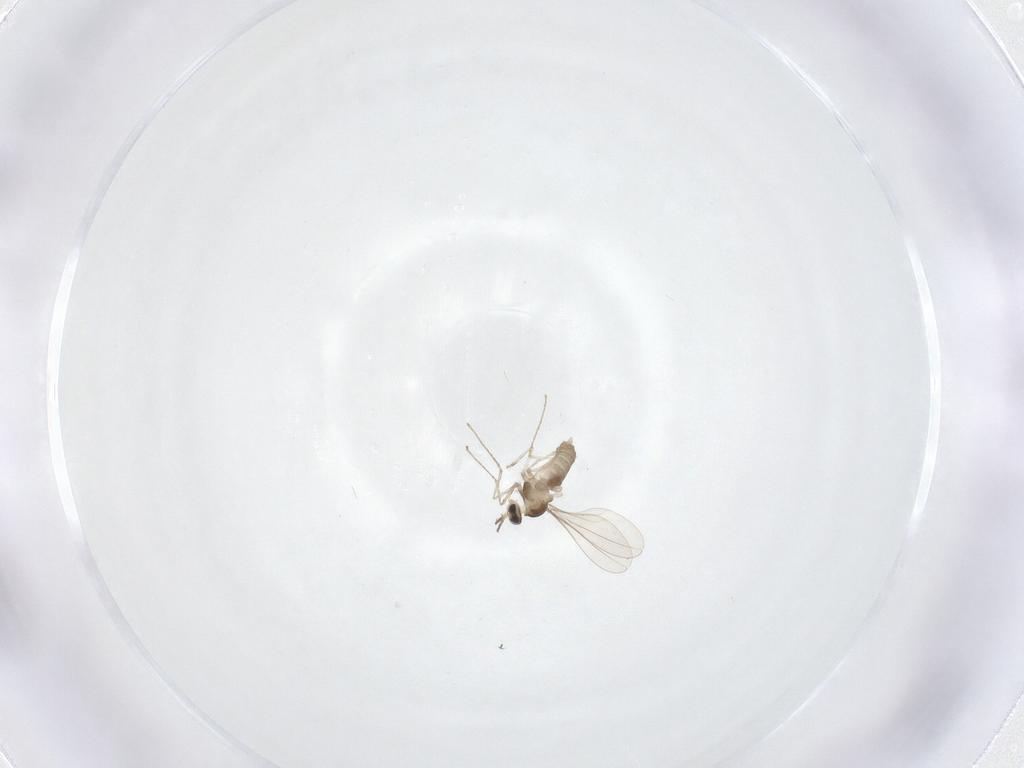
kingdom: Animalia
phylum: Arthropoda
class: Insecta
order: Diptera
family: Cecidomyiidae
